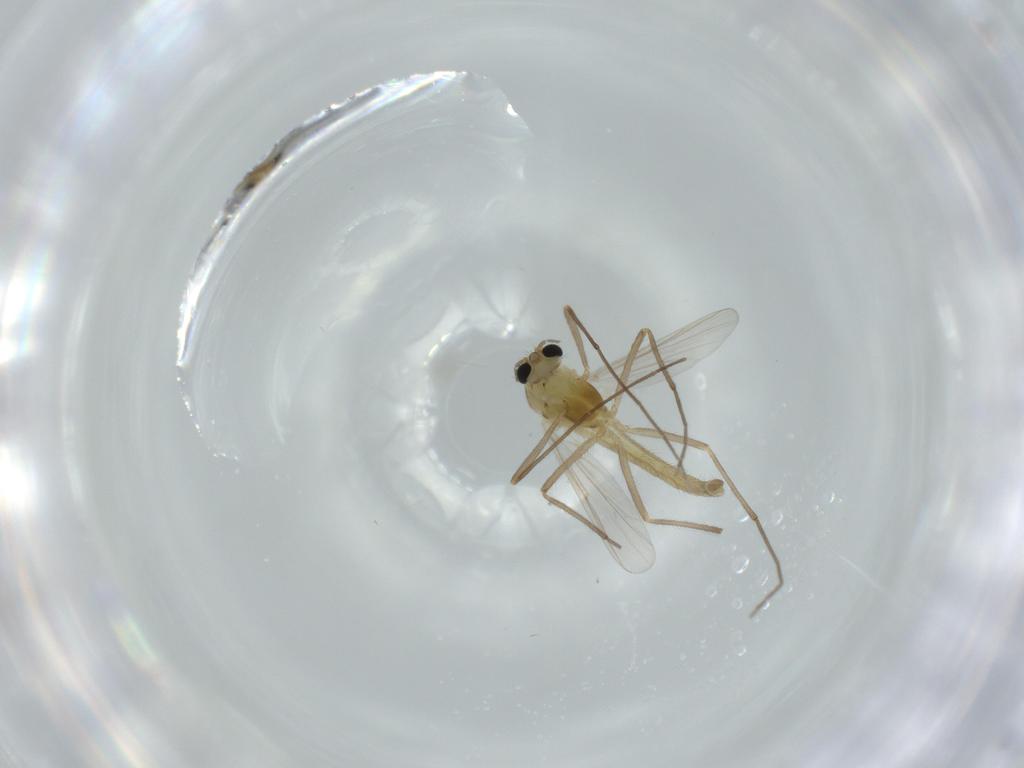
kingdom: Animalia
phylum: Arthropoda
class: Insecta
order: Diptera
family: Chironomidae
